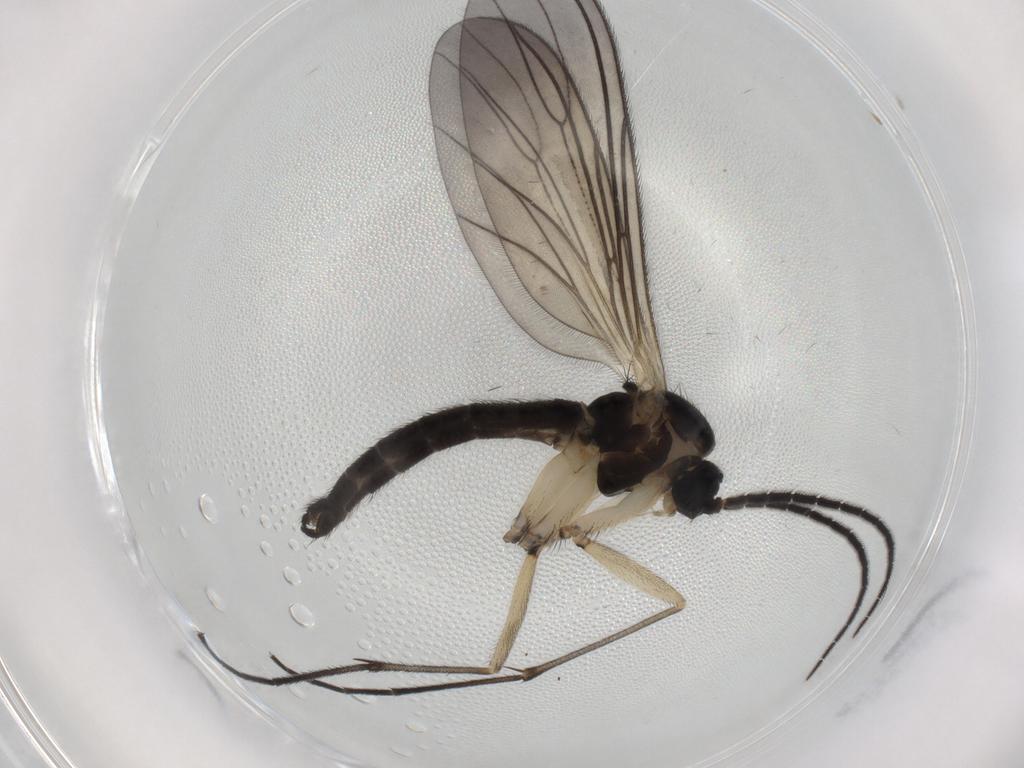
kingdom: Animalia
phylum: Arthropoda
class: Insecta
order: Diptera
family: Sciaridae
